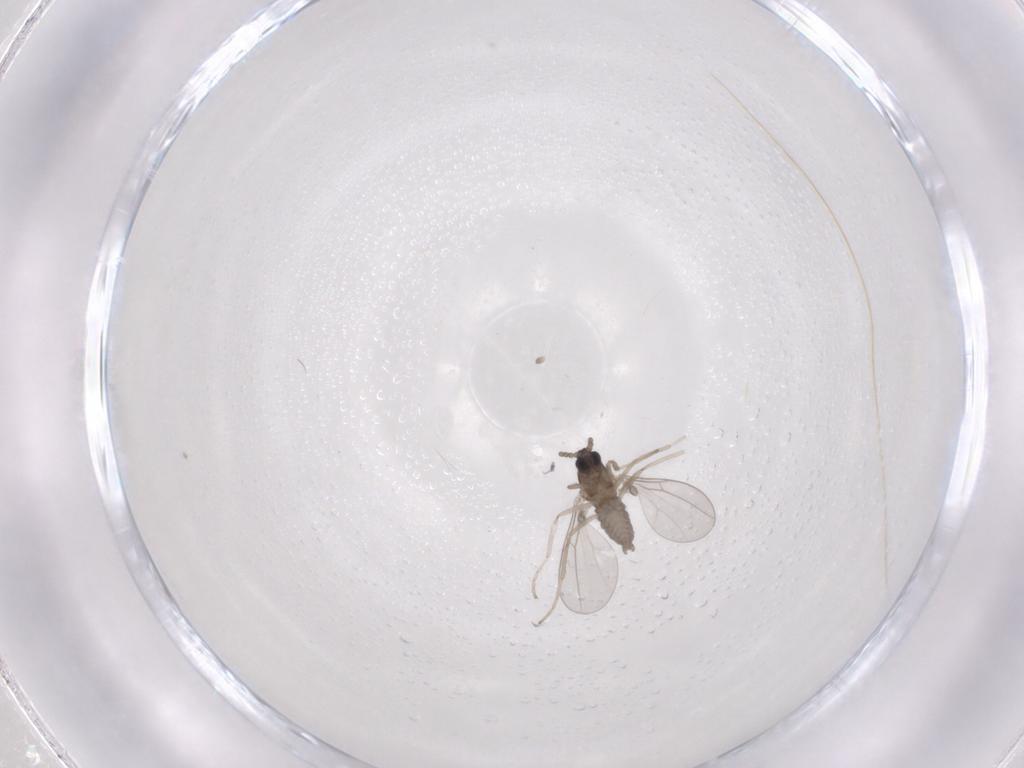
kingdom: Animalia
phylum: Arthropoda
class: Insecta
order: Diptera
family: Cecidomyiidae
